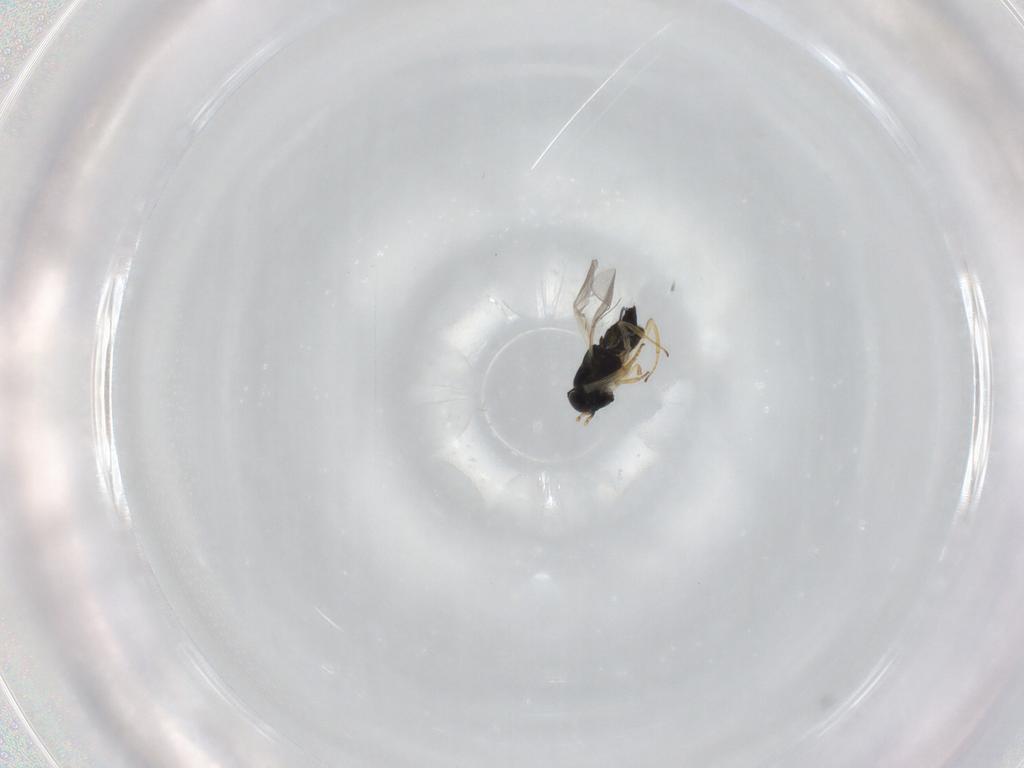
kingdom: Animalia
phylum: Arthropoda
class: Insecta
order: Hymenoptera
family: Encyrtidae
